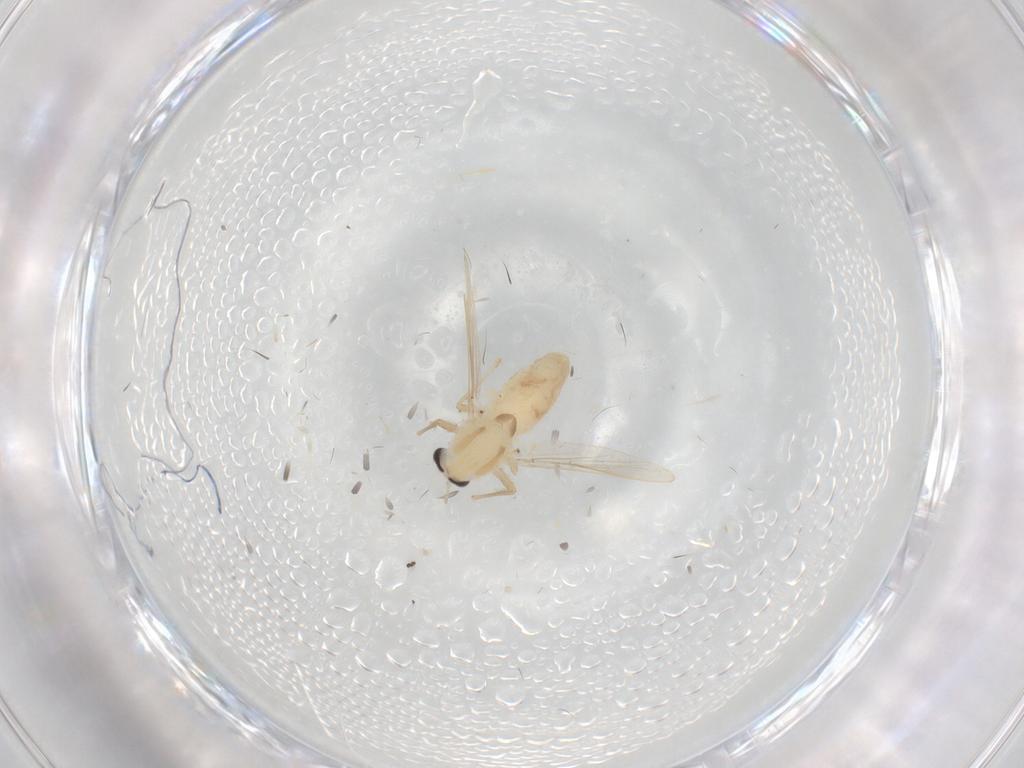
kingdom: Animalia
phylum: Arthropoda
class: Insecta
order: Diptera
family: Chironomidae
